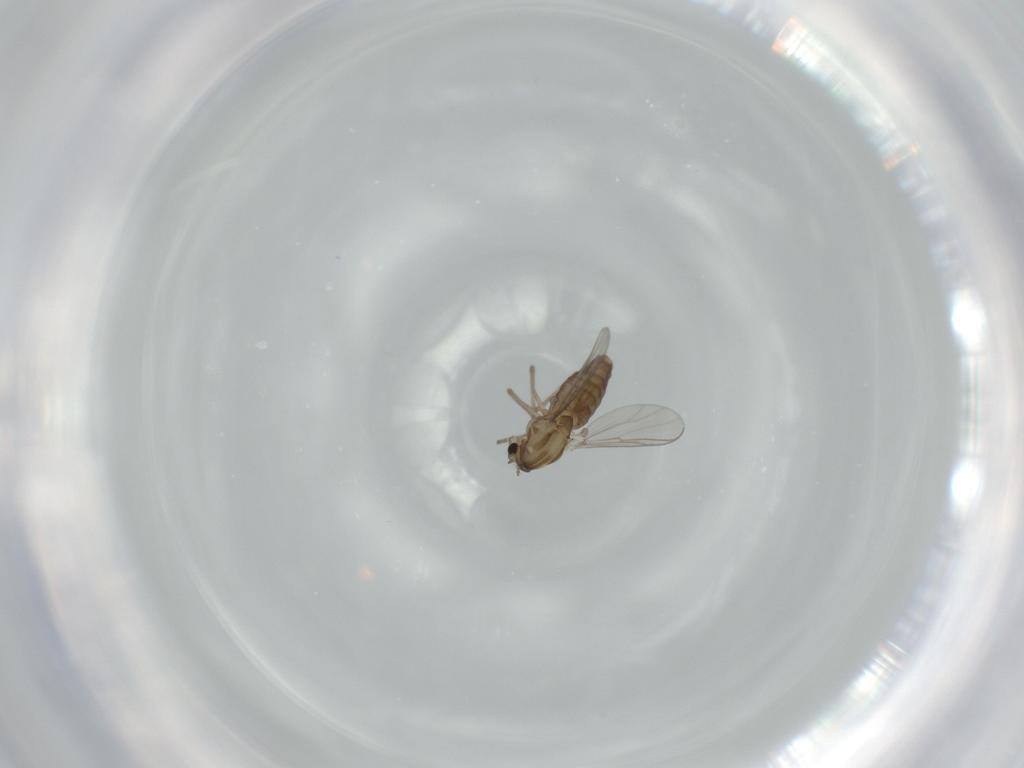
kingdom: Animalia
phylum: Arthropoda
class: Insecta
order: Diptera
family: Chironomidae
